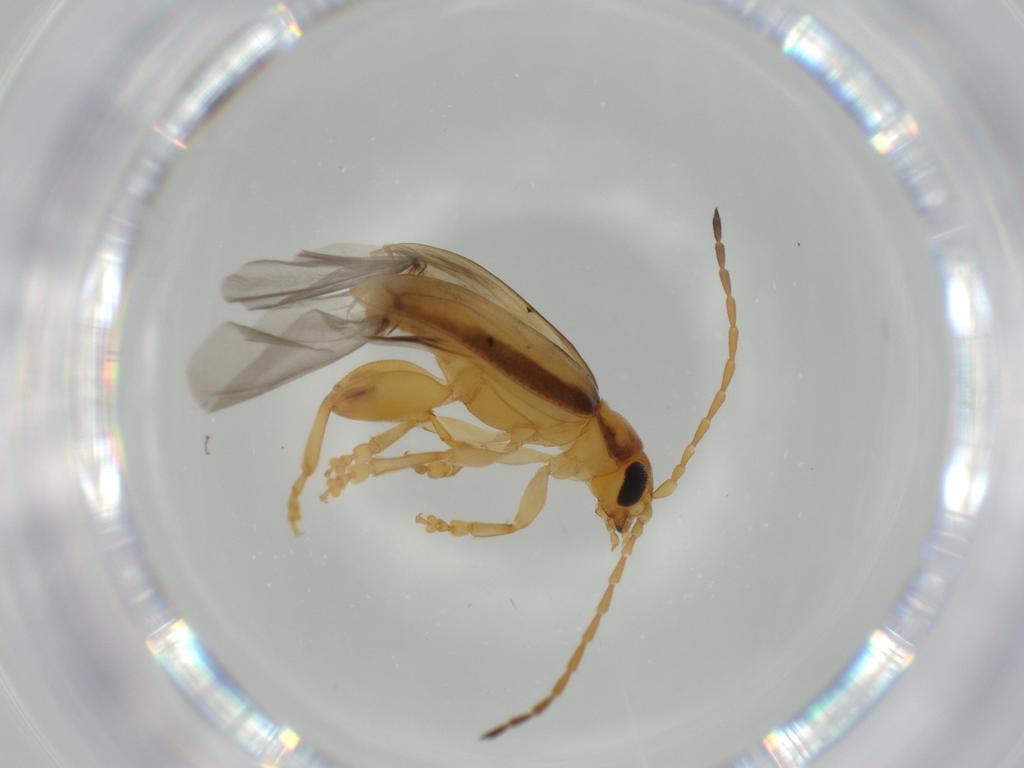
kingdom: Animalia
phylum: Arthropoda
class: Insecta
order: Coleoptera
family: Chrysomelidae
